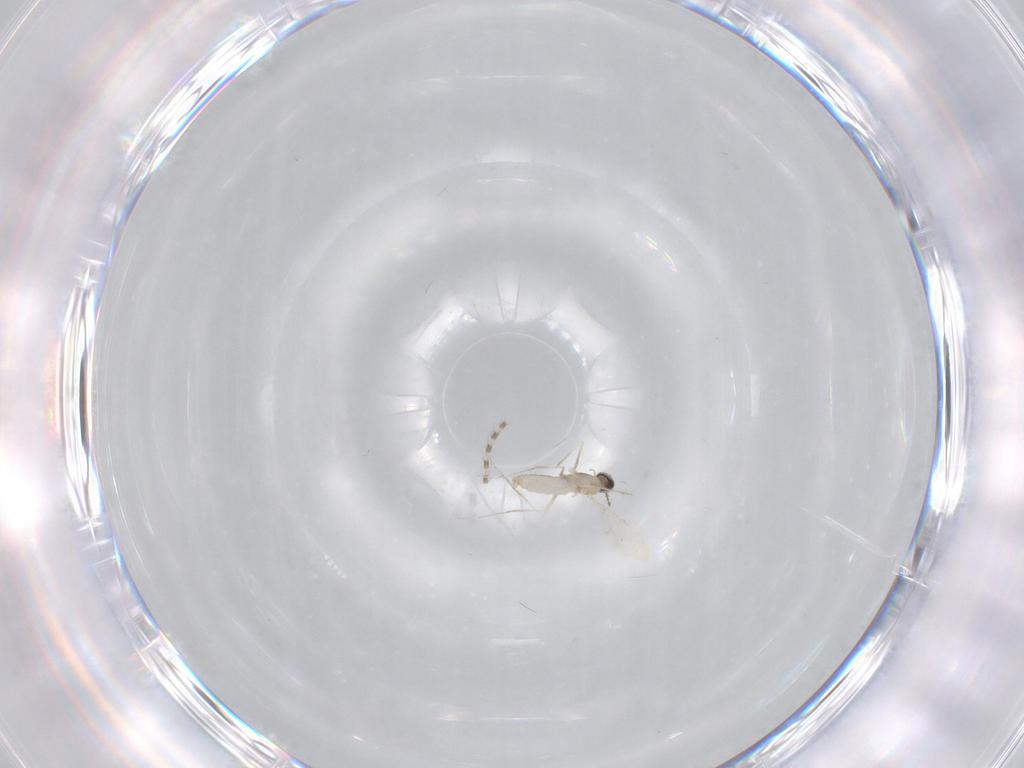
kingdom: Animalia
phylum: Arthropoda
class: Insecta
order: Diptera
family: Cecidomyiidae
